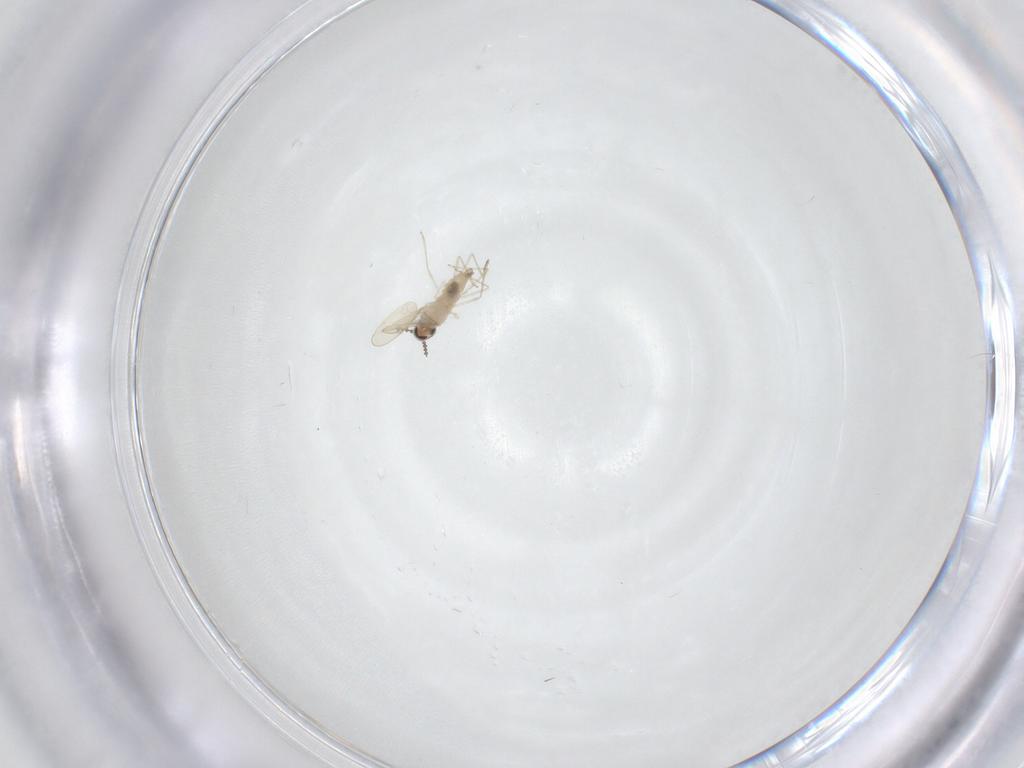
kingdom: Animalia
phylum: Arthropoda
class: Insecta
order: Diptera
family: Cecidomyiidae
